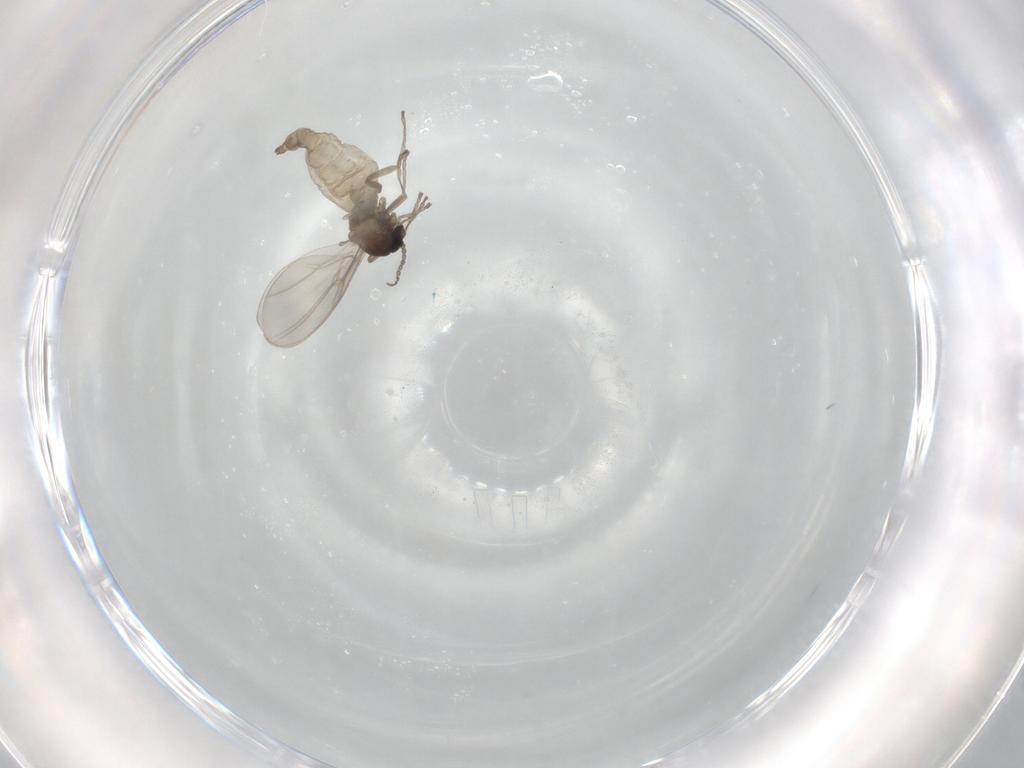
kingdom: Animalia
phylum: Arthropoda
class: Insecta
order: Diptera
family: Cecidomyiidae
